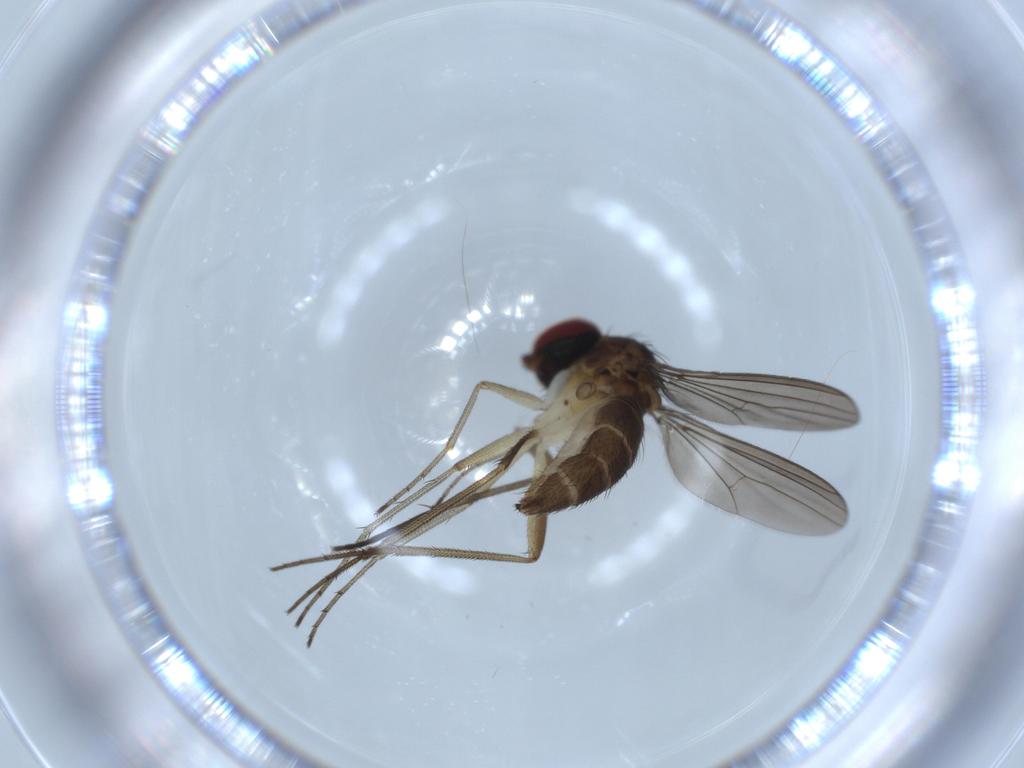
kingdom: Animalia
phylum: Arthropoda
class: Insecta
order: Diptera
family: Dolichopodidae
